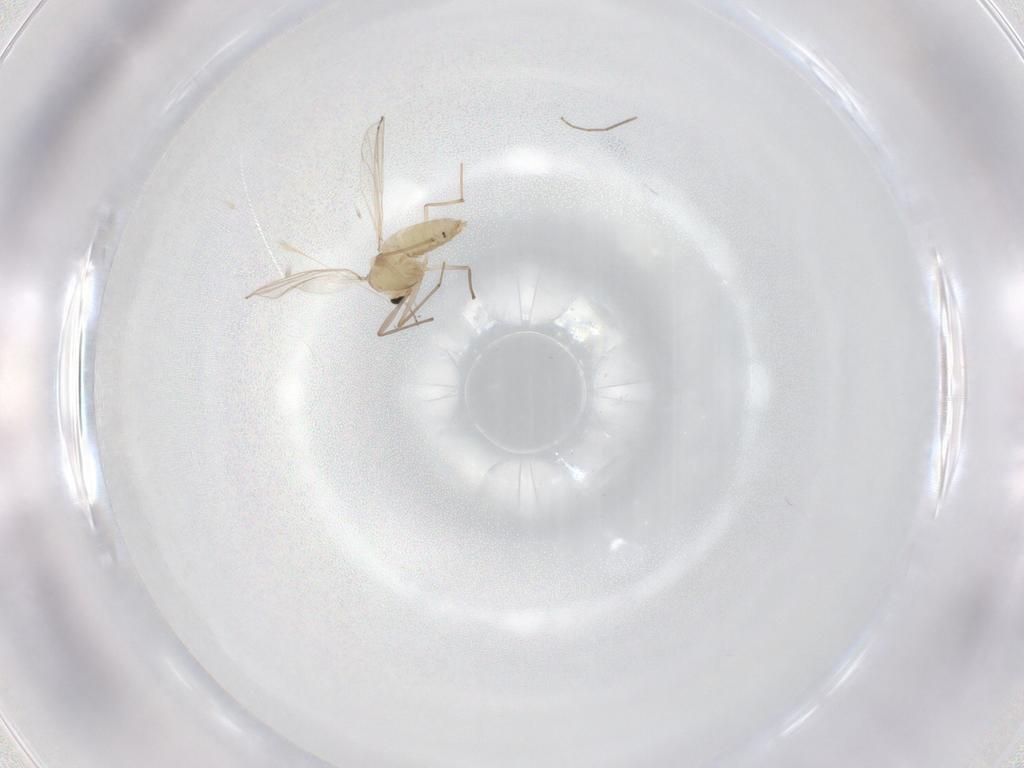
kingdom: Animalia
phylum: Arthropoda
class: Insecta
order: Diptera
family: Chironomidae
